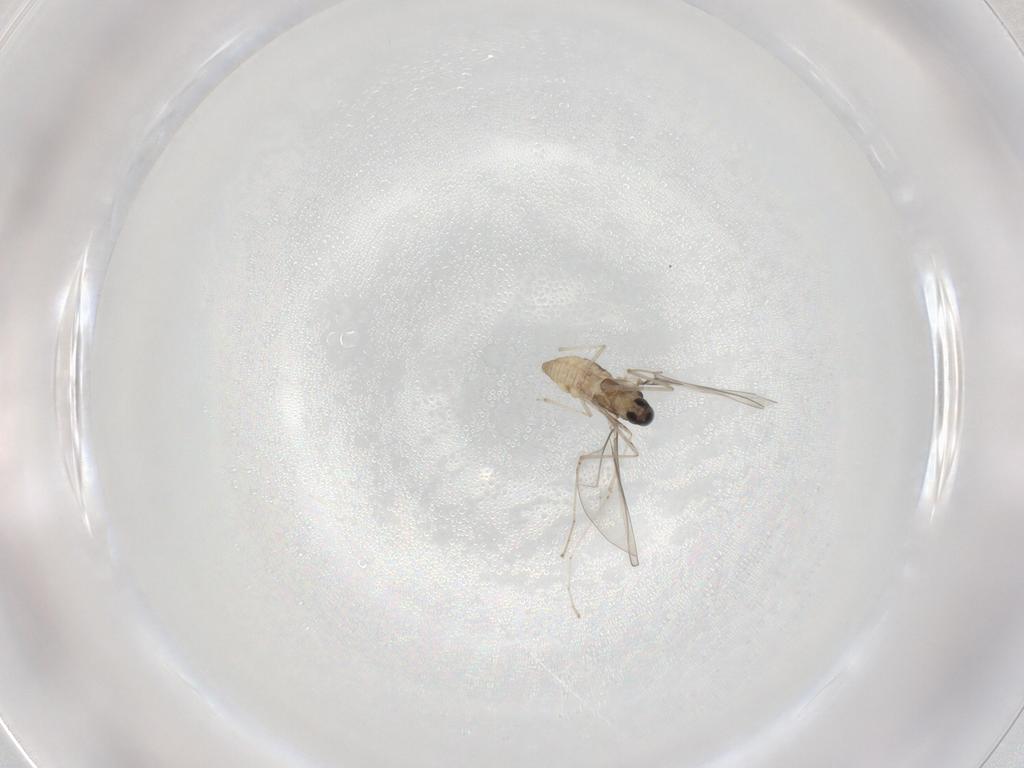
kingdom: Animalia
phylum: Arthropoda
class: Insecta
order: Diptera
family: Cecidomyiidae
